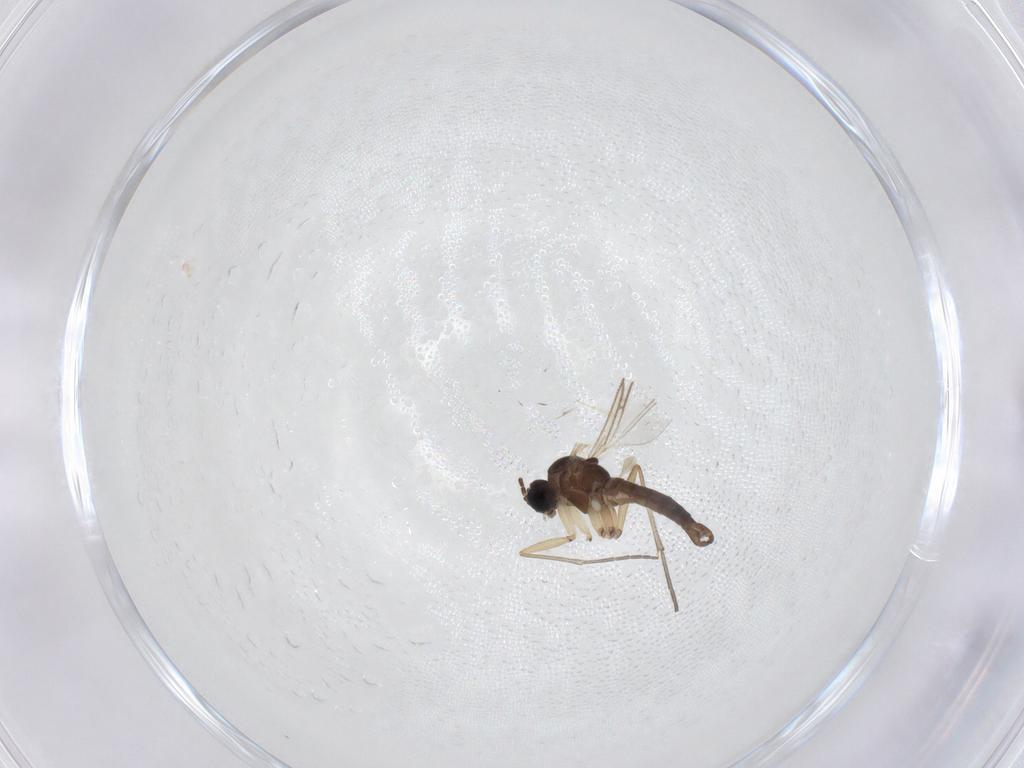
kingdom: Animalia
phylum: Arthropoda
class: Insecta
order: Diptera
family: Sciaridae
